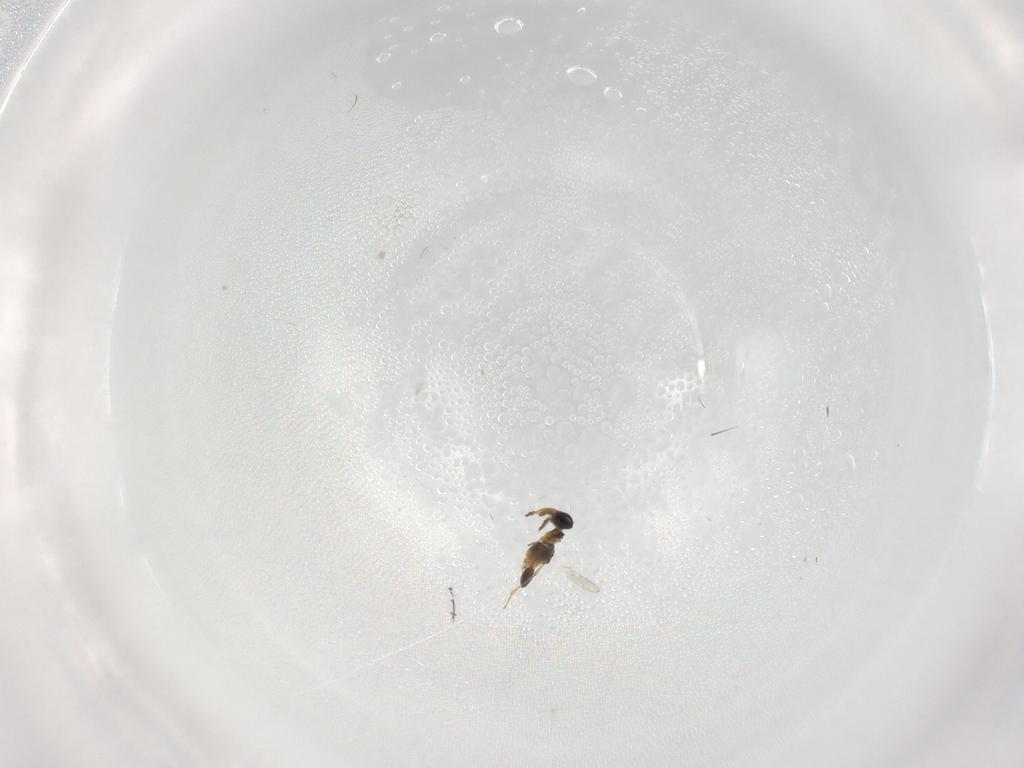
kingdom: Animalia
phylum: Arthropoda
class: Insecta
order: Hymenoptera
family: Platygastridae
